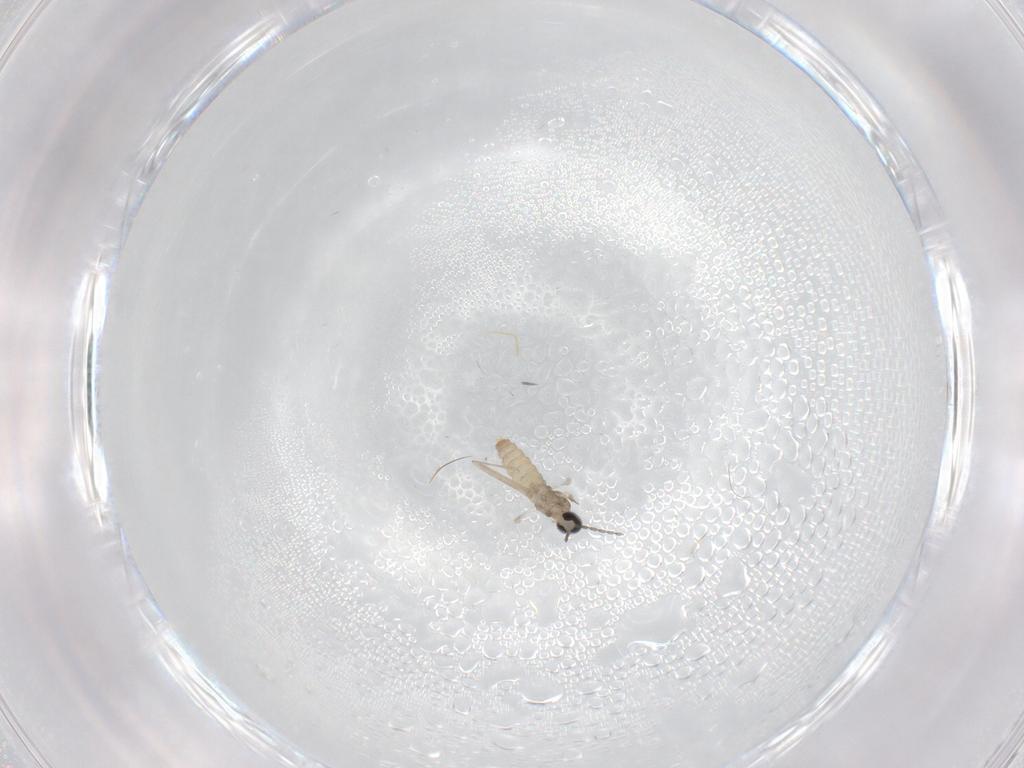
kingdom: Animalia
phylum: Arthropoda
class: Insecta
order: Diptera
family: Cecidomyiidae
